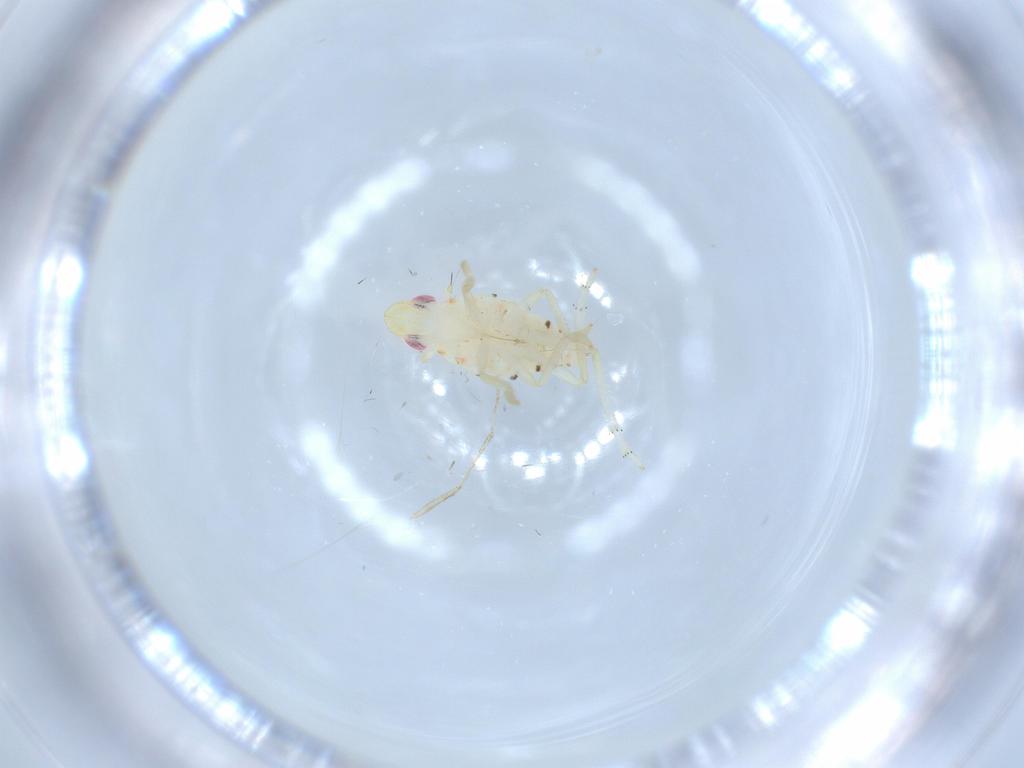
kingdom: Animalia
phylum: Arthropoda
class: Insecta
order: Hemiptera
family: Tropiduchidae
